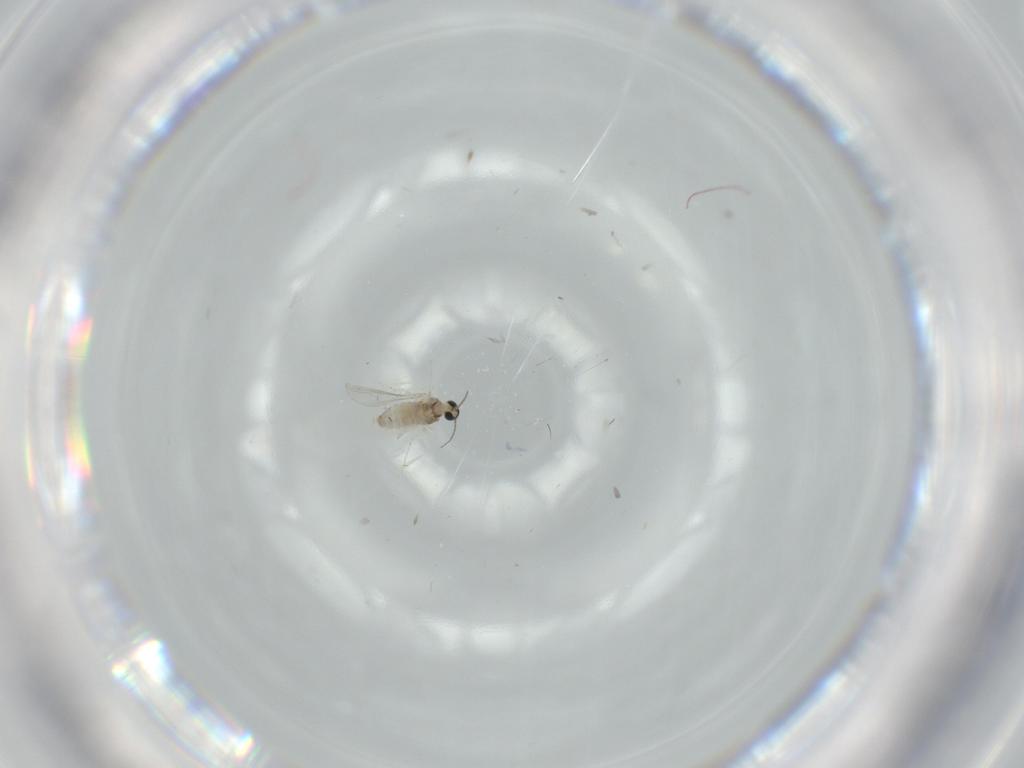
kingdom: Animalia
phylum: Arthropoda
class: Insecta
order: Diptera
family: Cecidomyiidae
